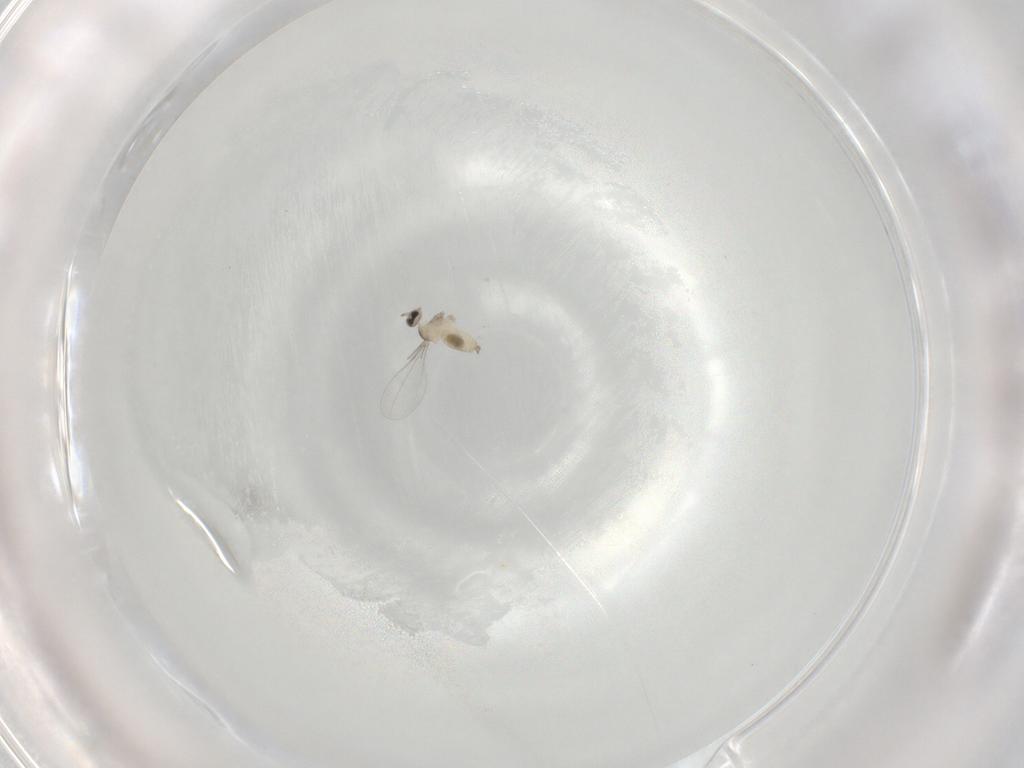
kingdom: Animalia
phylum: Arthropoda
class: Insecta
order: Diptera
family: Cecidomyiidae
